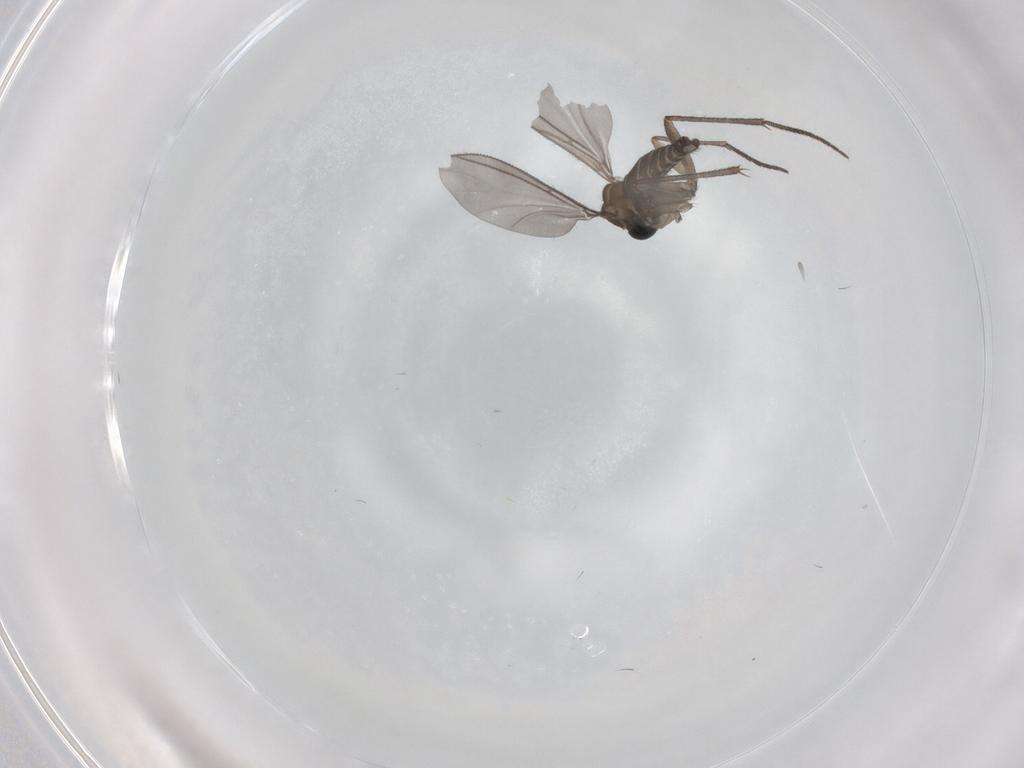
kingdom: Animalia
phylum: Arthropoda
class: Insecta
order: Diptera
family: Sciaridae
